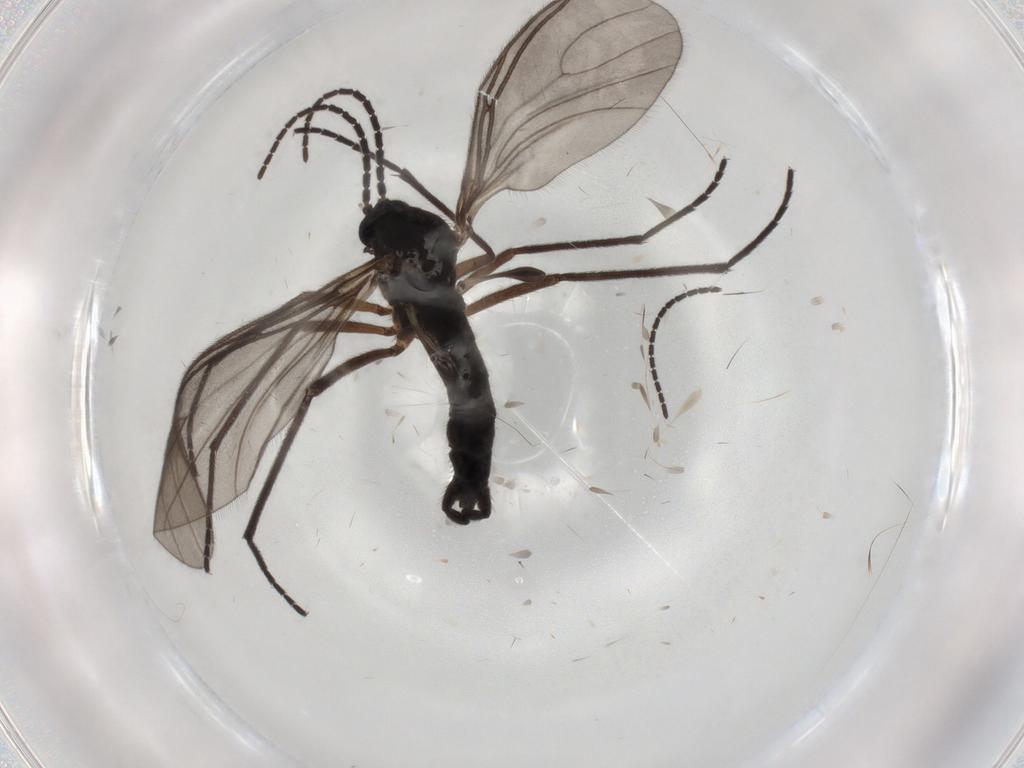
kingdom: Animalia
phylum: Arthropoda
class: Insecta
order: Diptera
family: Sciaridae
